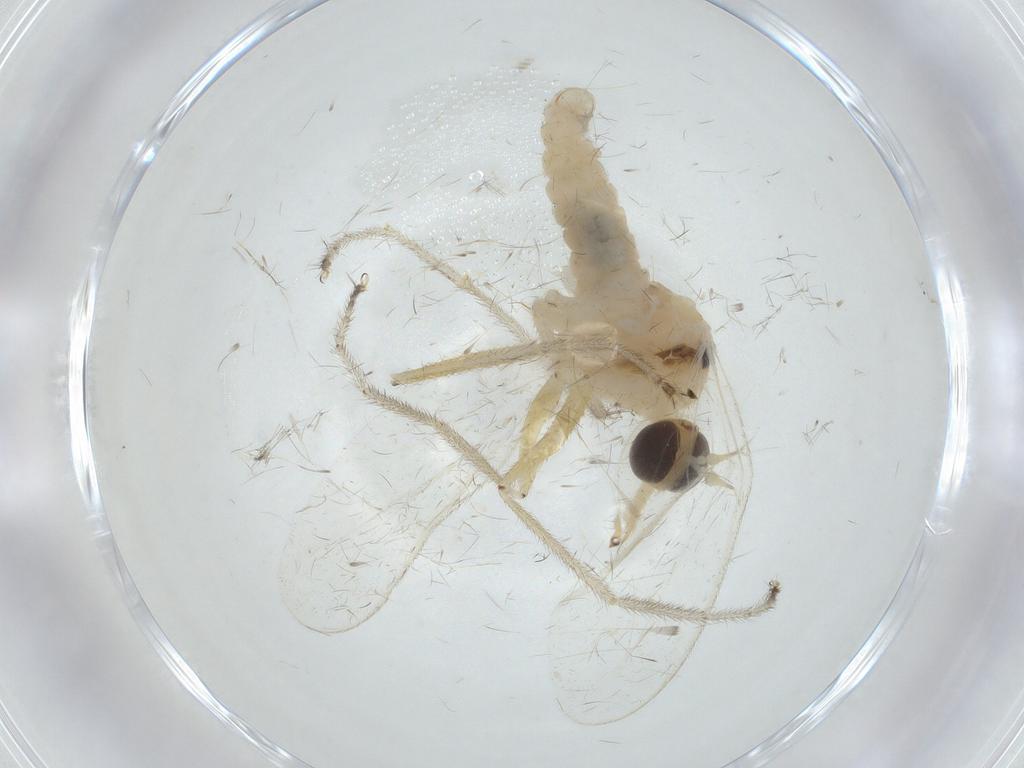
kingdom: Animalia
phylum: Arthropoda
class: Insecta
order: Diptera
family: Empididae
